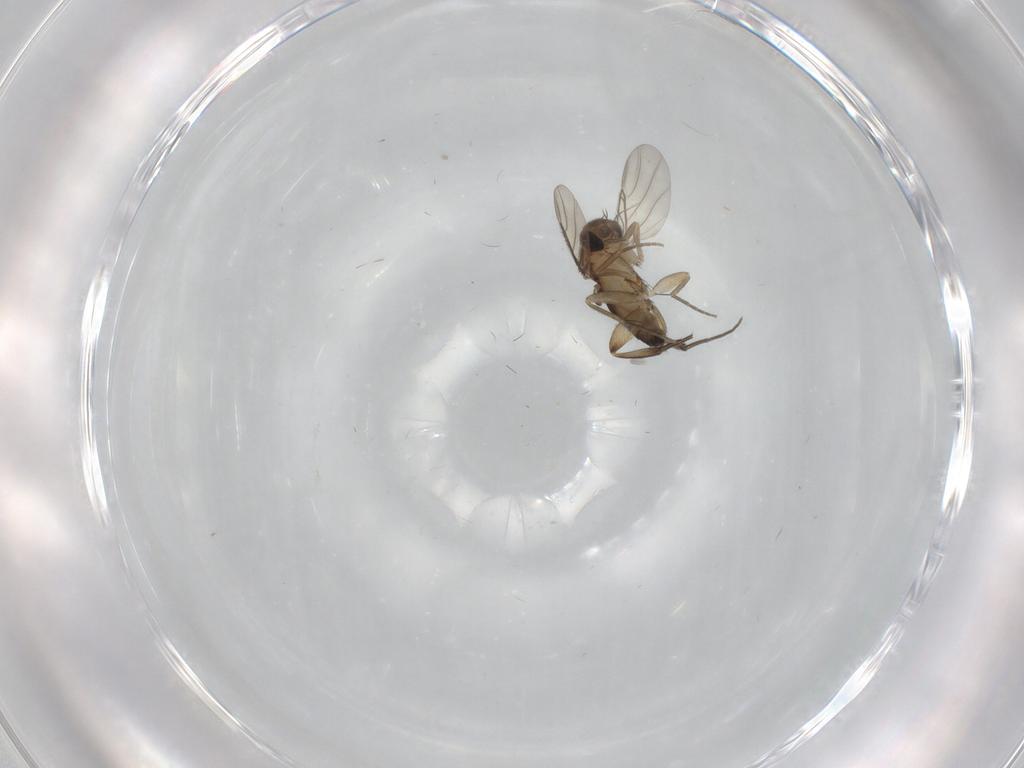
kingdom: Animalia
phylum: Arthropoda
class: Insecta
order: Diptera
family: Phoridae
